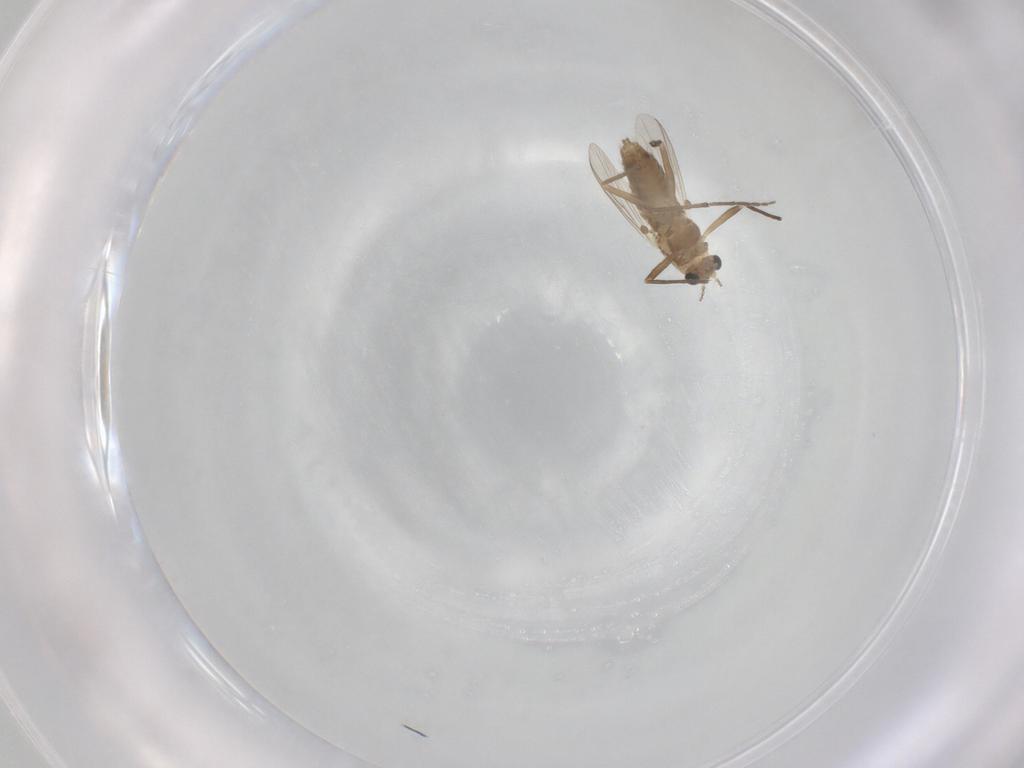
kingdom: Animalia
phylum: Arthropoda
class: Insecta
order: Diptera
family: Chironomidae
